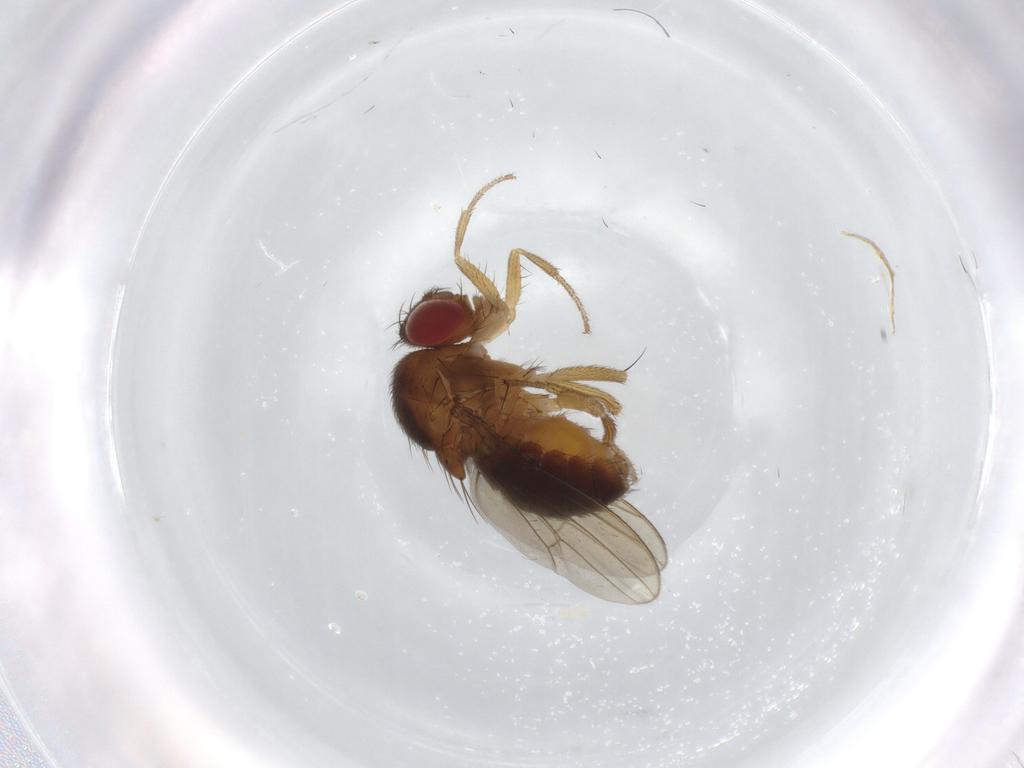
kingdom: Animalia
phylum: Arthropoda
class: Insecta
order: Diptera
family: Drosophilidae
